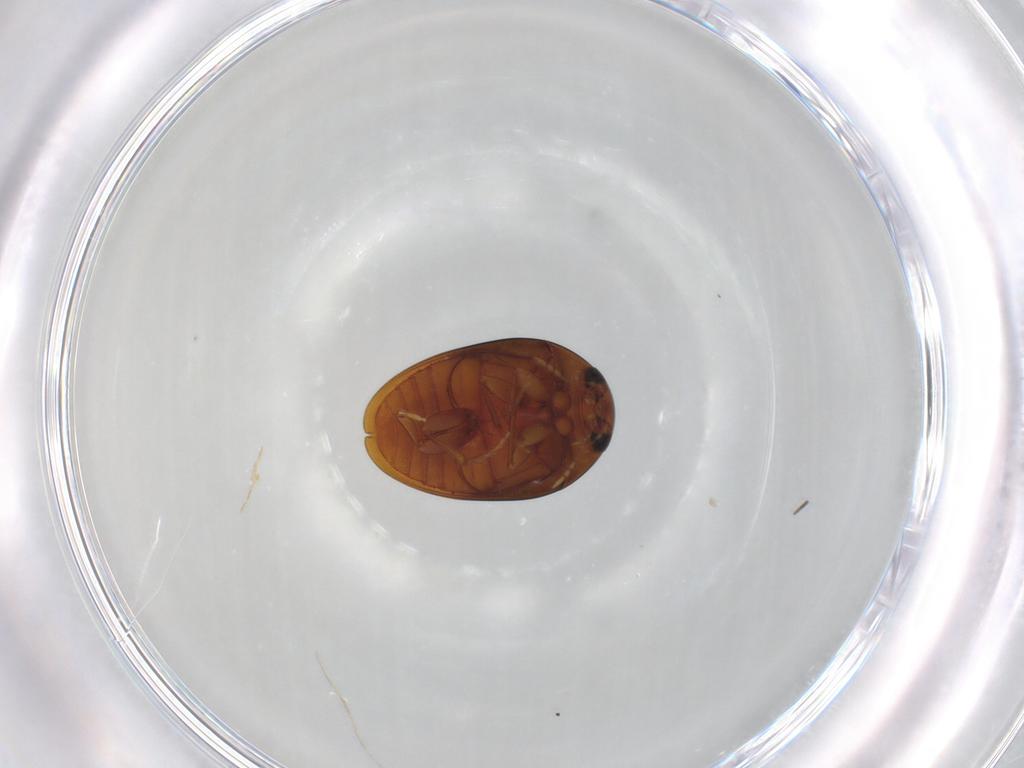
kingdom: Animalia
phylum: Arthropoda
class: Insecta
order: Coleoptera
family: Phalacridae
